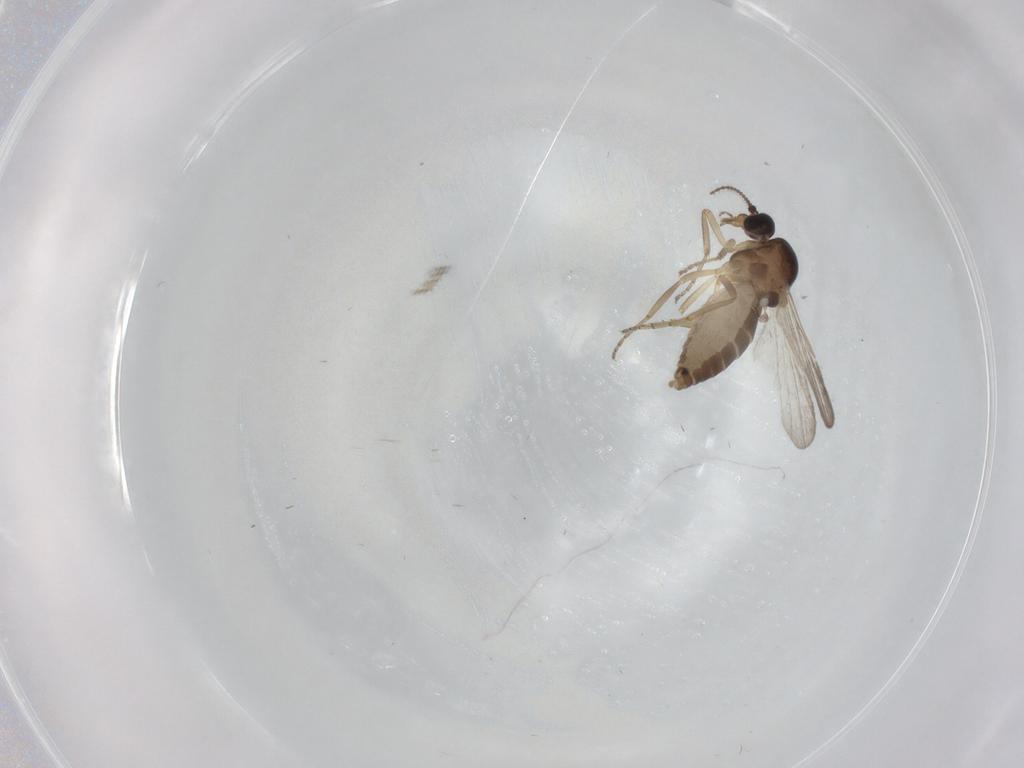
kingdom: Animalia
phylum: Arthropoda
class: Insecta
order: Diptera
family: Ceratopogonidae
